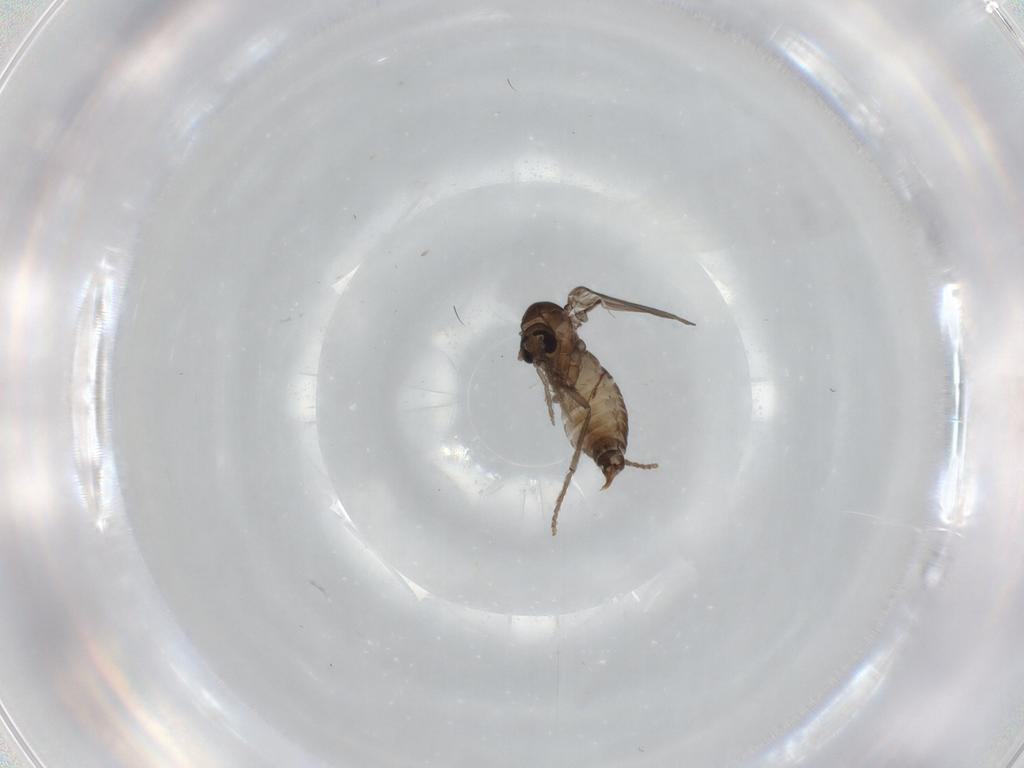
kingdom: Animalia
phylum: Arthropoda
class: Insecta
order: Diptera
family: Psychodidae
